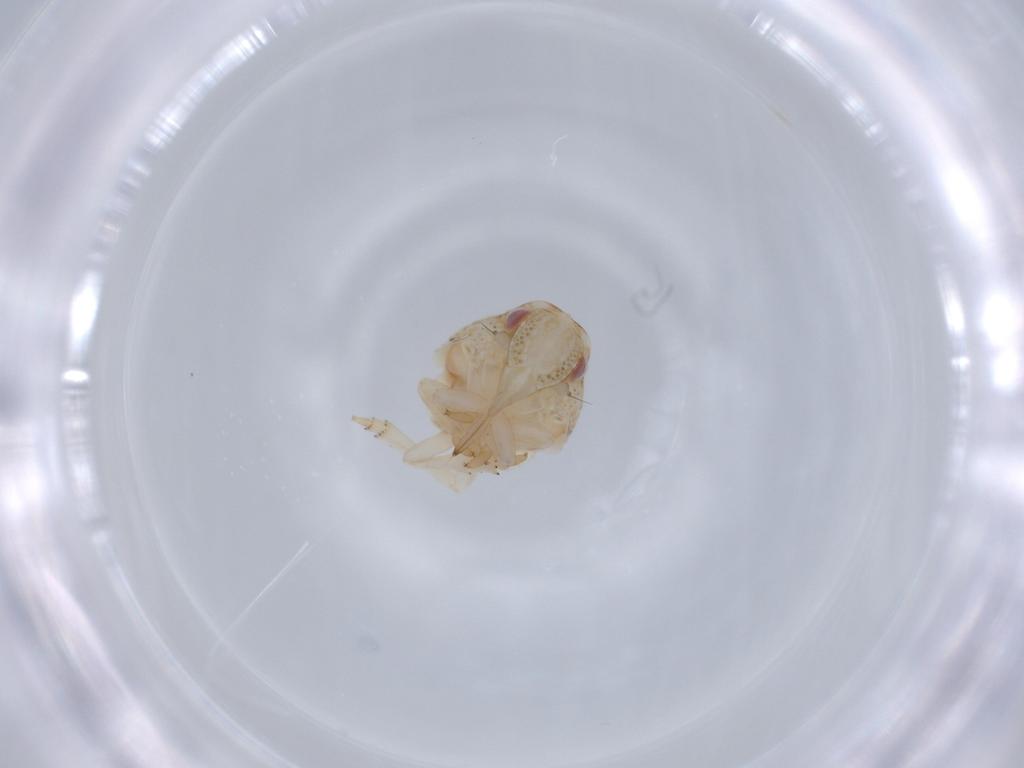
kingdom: Animalia
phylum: Arthropoda
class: Insecta
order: Hemiptera
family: Acanaloniidae
